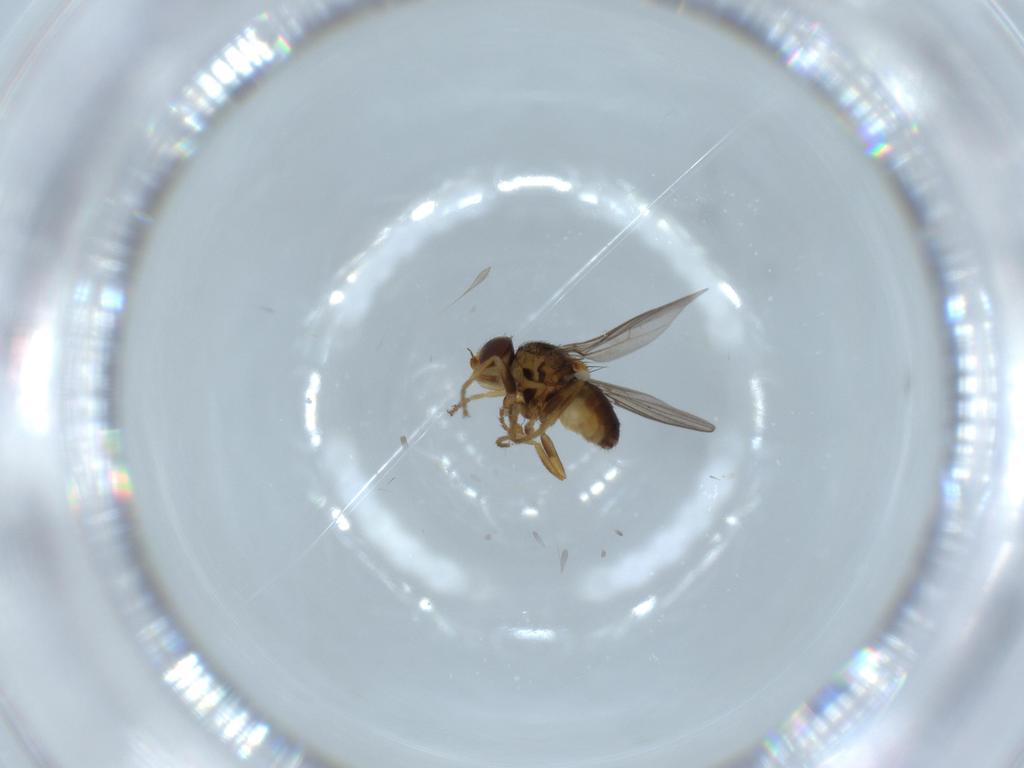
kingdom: Animalia
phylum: Arthropoda
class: Insecta
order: Diptera
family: Chloropidae
